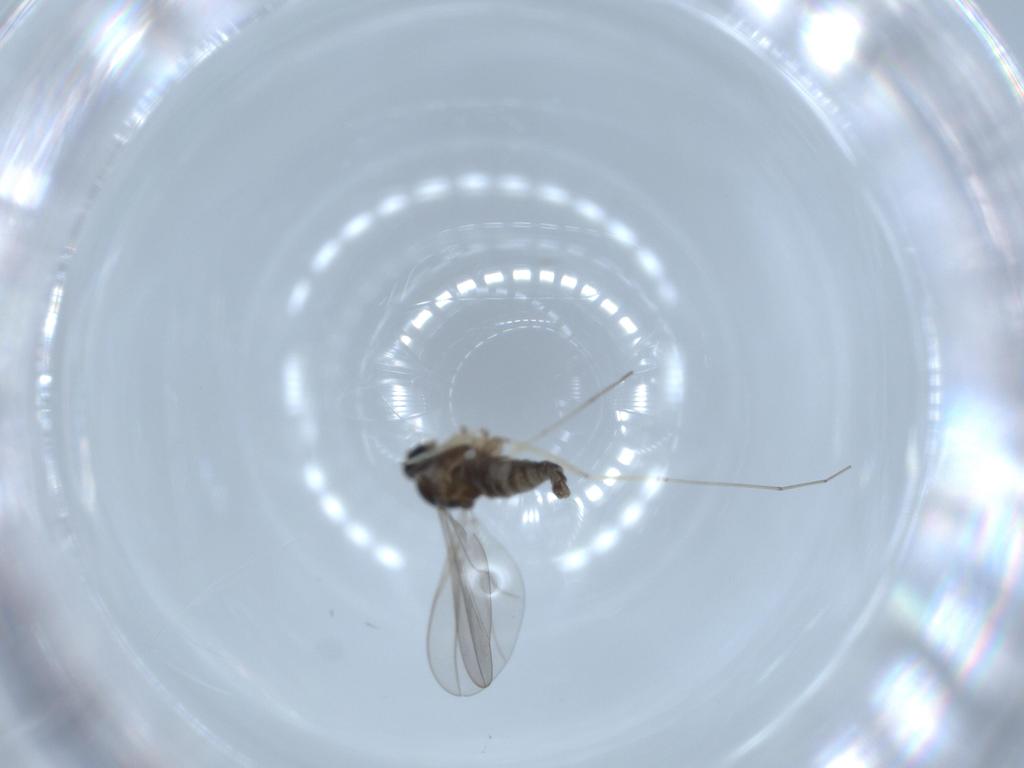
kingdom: Animalia
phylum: Arthropoda
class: Insecta
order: Diptera
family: Cecidomyiidae
